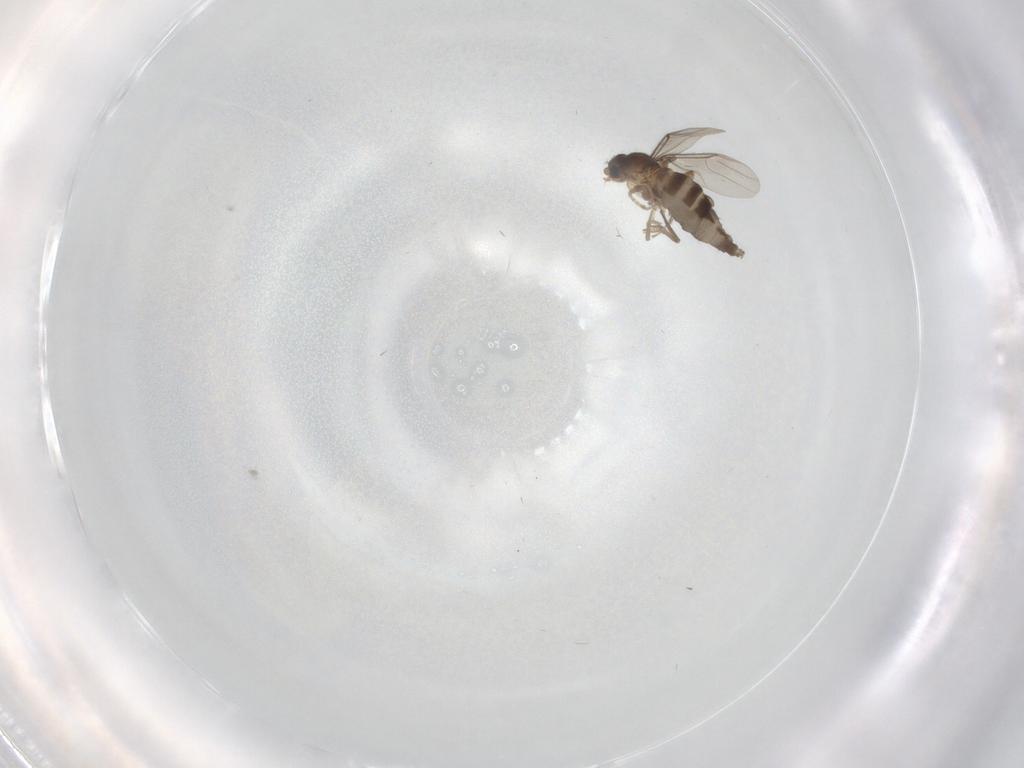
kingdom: Animalia
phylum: Arthropoda
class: Insecta
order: Diptera
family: Phoridae
